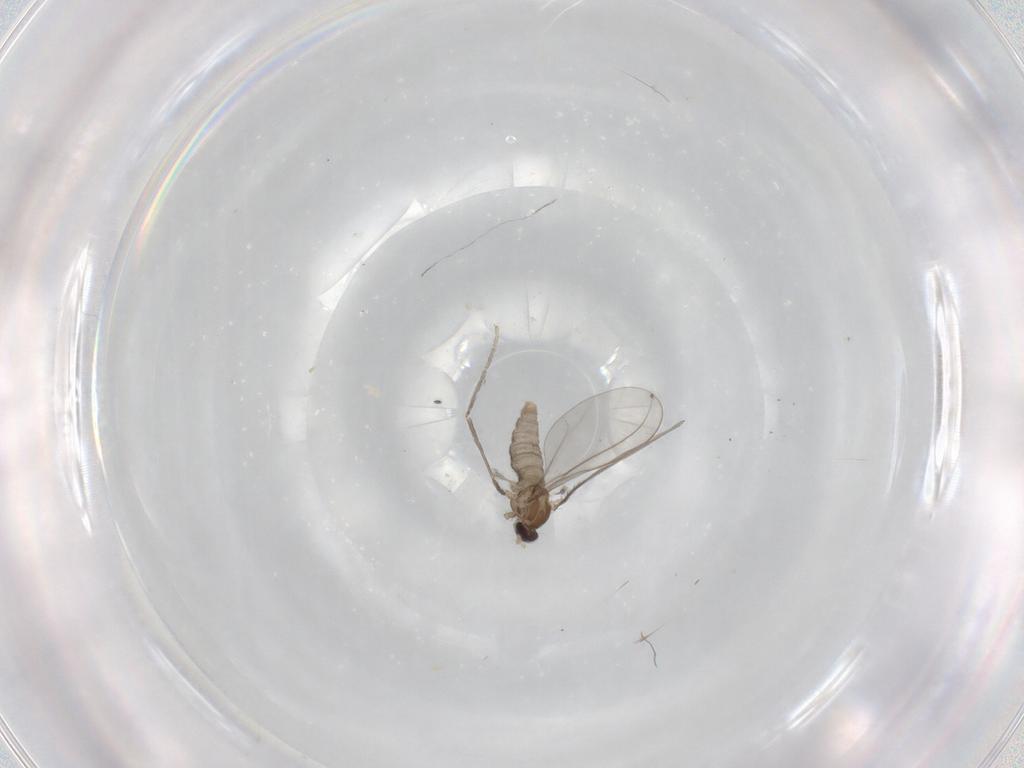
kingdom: Animalia
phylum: Arthropoda
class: Insecta
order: Diptera
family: Cecidomyiidae
